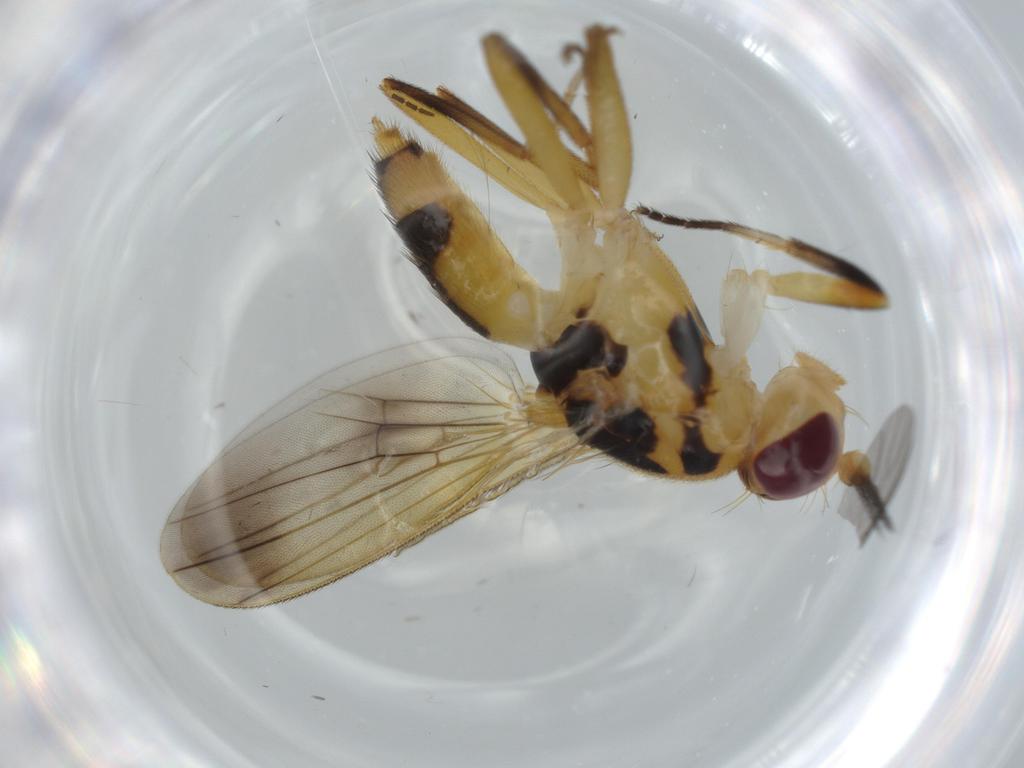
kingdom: Animalia
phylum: Arthropoda
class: Insecta
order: Diptera
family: Clusiidae
